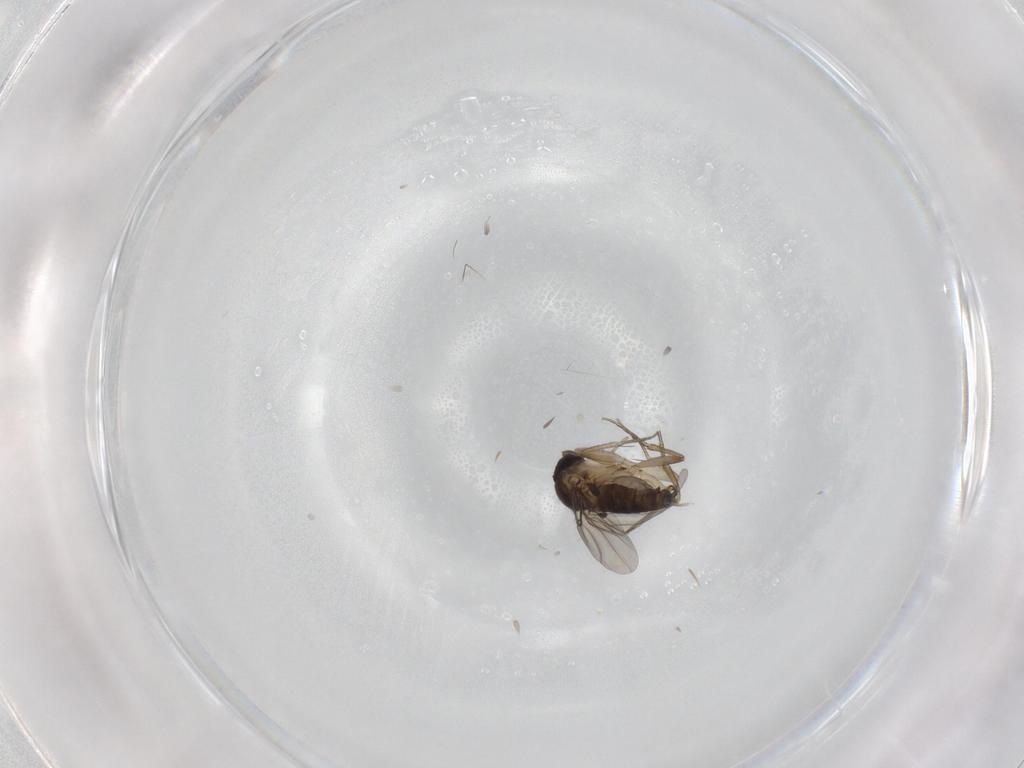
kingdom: Animalia
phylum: Arthropoda
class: Insecta
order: Diptera
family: Phoridae
